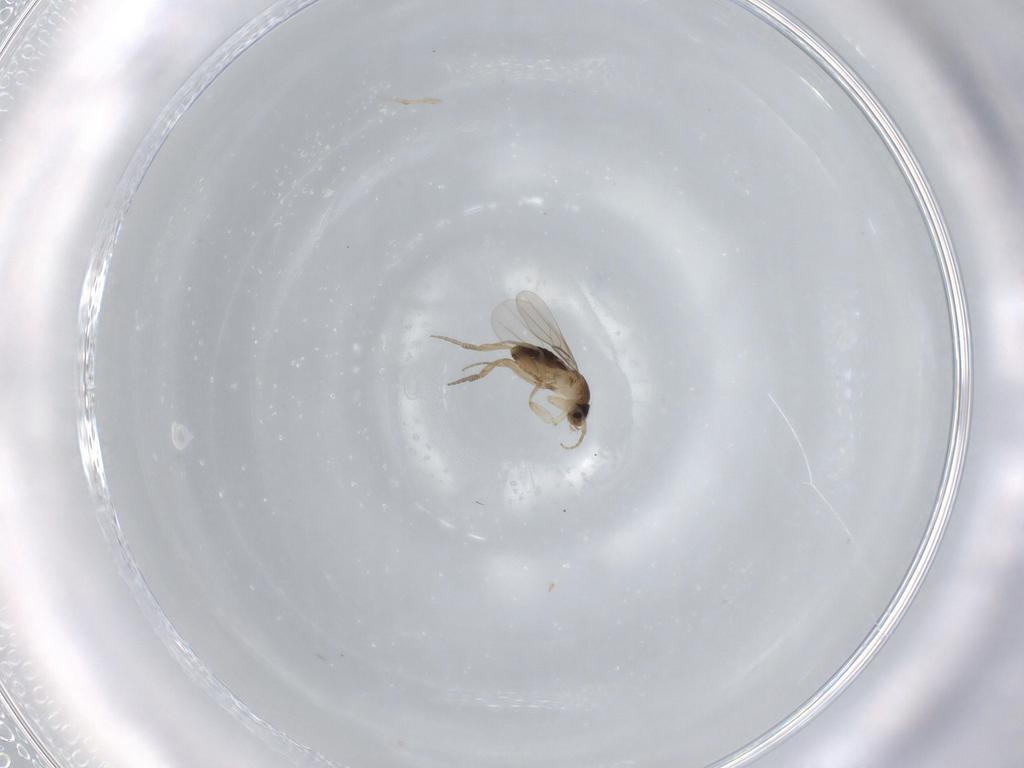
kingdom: Animalia
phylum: Arthropoda
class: Insecta
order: Diptera
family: Phoridae
